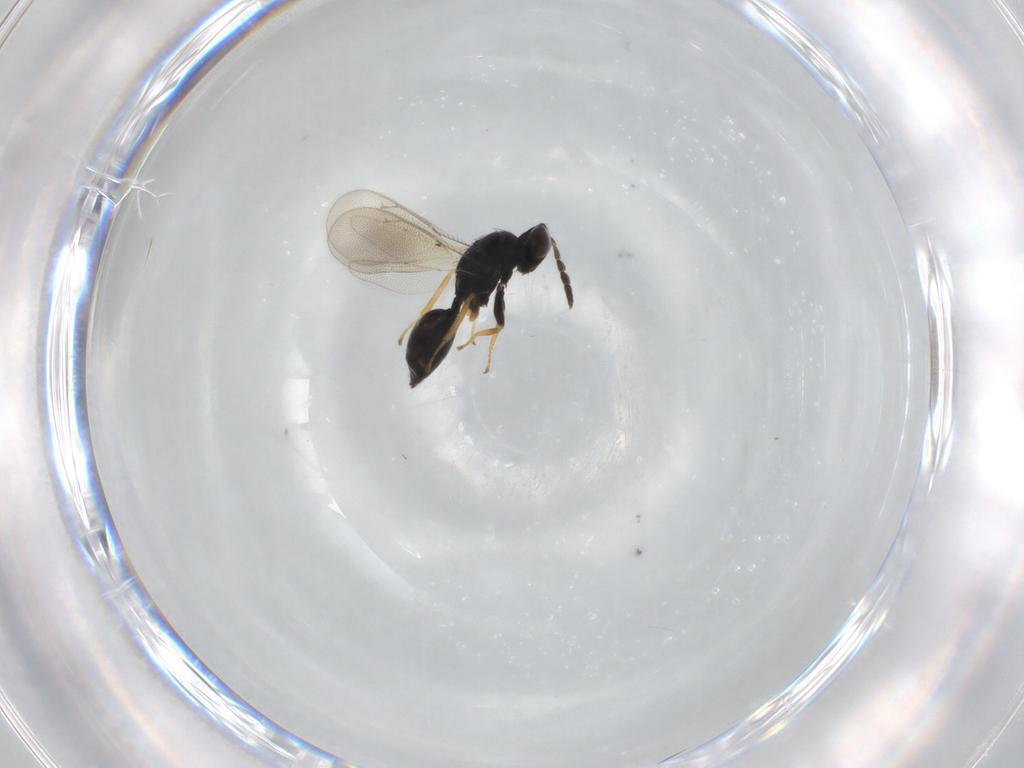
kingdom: Animalia
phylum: Arthropoda
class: Insecta
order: Hymenoptera
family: Eulophidae
